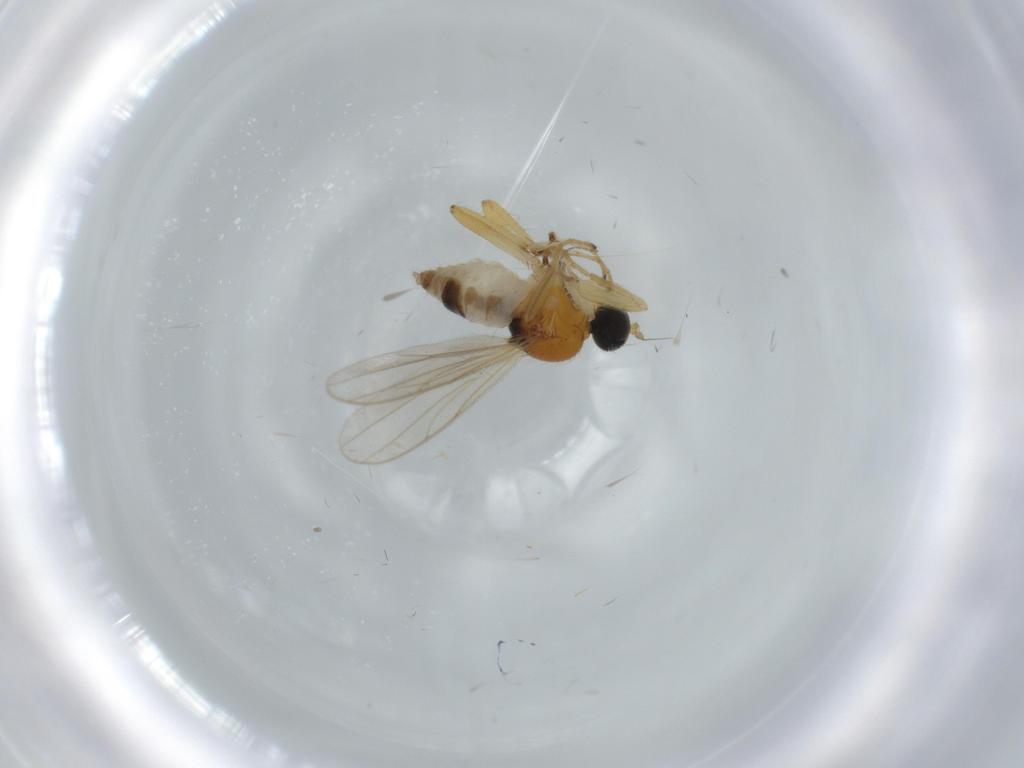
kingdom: Animalia
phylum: Arthropoda
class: Insecta
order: Diptera
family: Hybotidae
